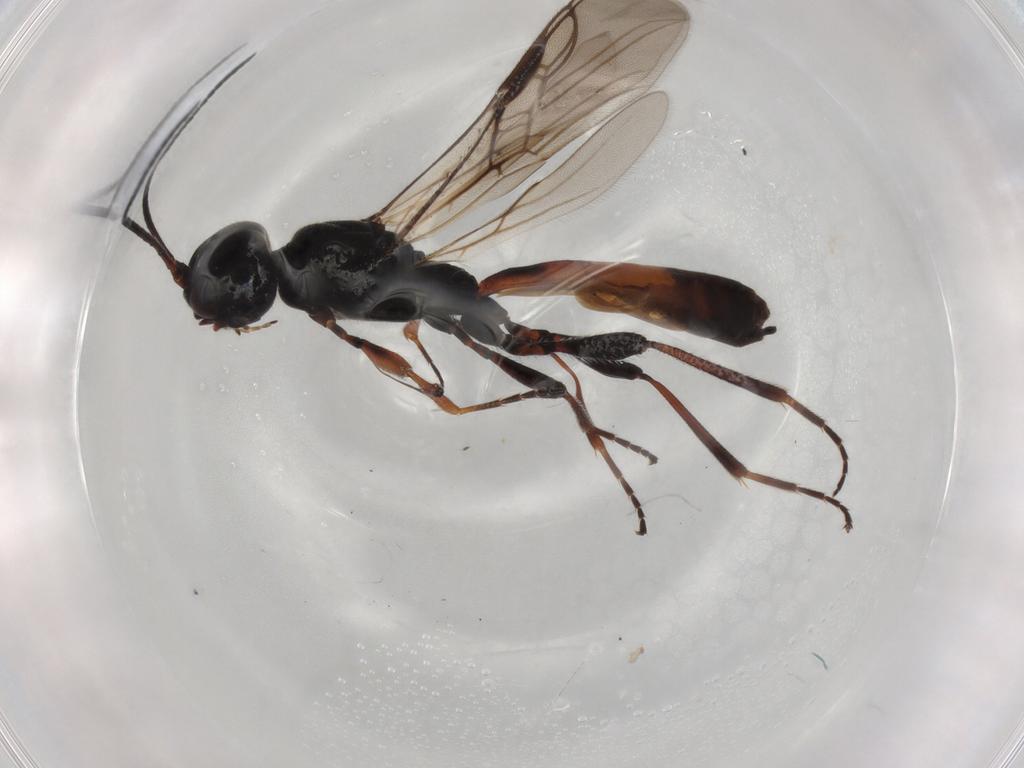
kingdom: Animalia
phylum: Arthropoda
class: Insecta
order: Hymenoptera
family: Braconidae
